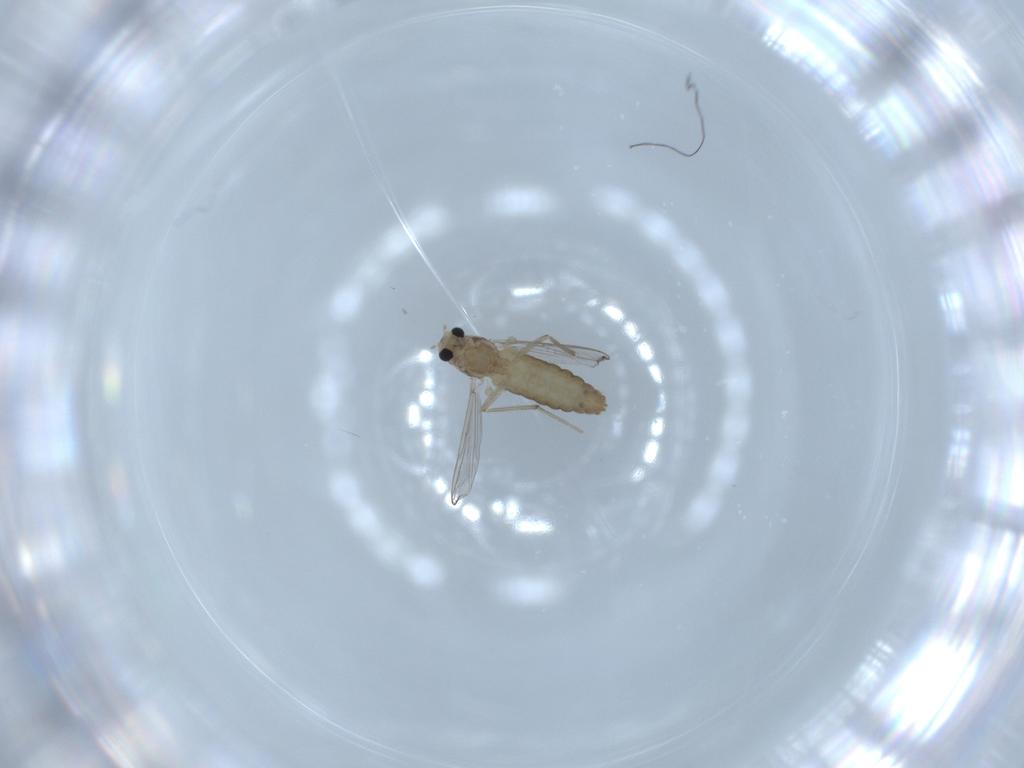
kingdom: Animalia
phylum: Arthropoda
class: Insecta
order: Diptera
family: Chironomidae
